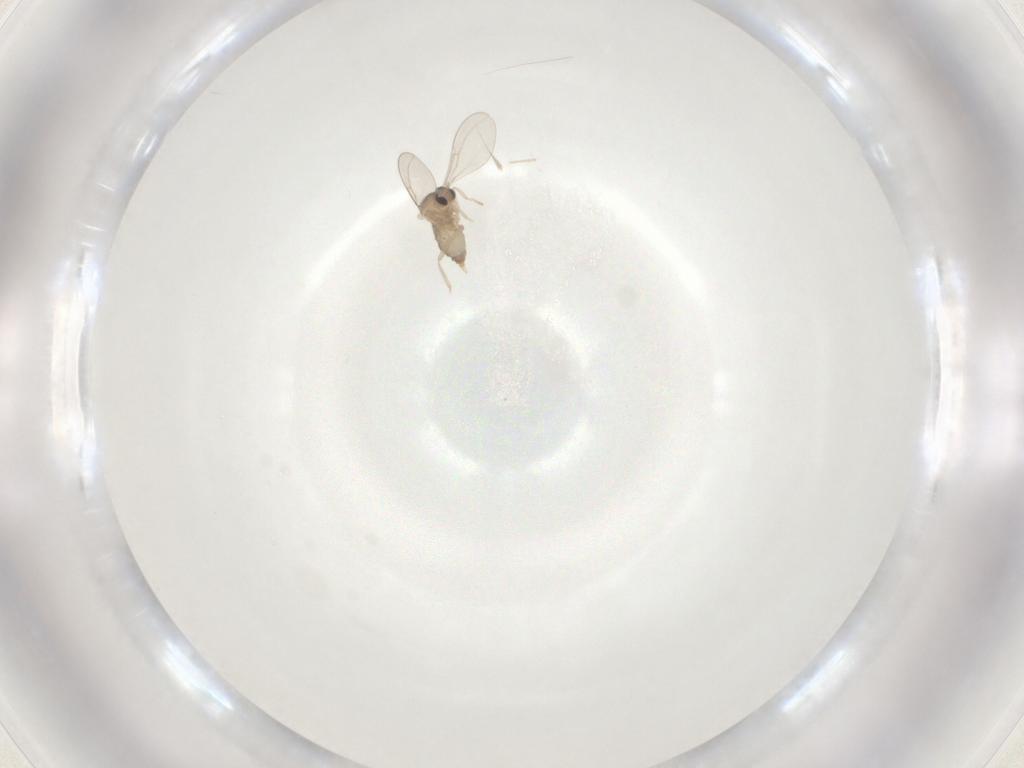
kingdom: Animalia
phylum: Arthropoda
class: Insecta
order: Diptera
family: Cecidomyiidae
